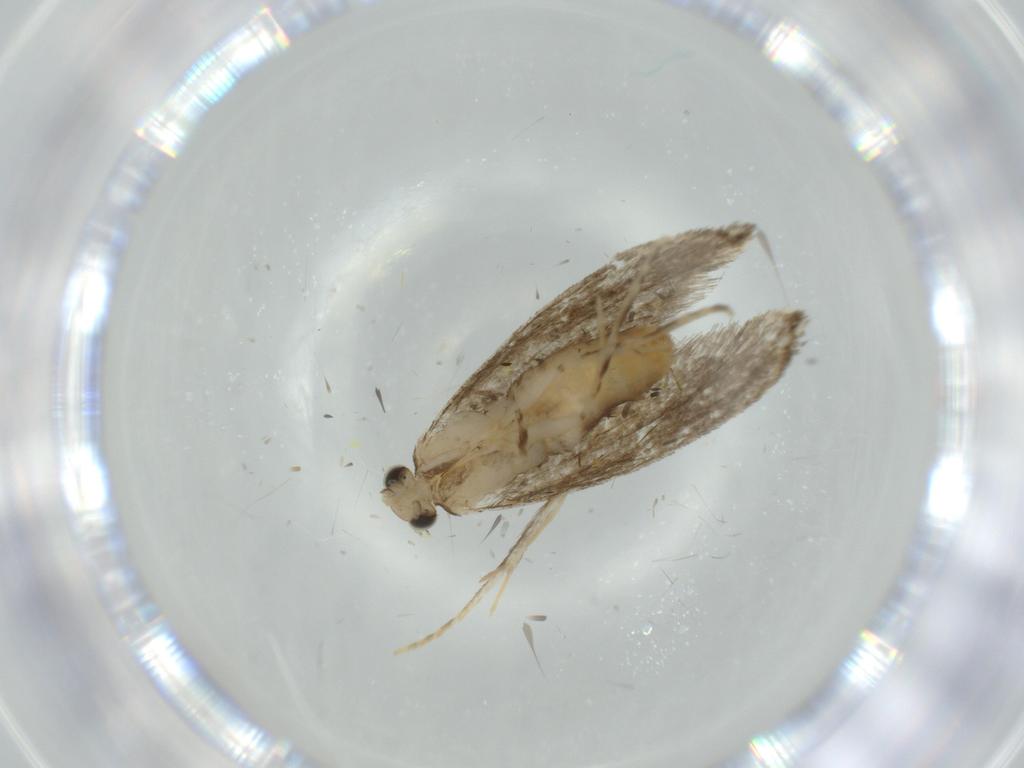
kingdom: Animalia
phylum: Arthropoda
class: Insecta
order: Lepidoptera
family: Tineidae
